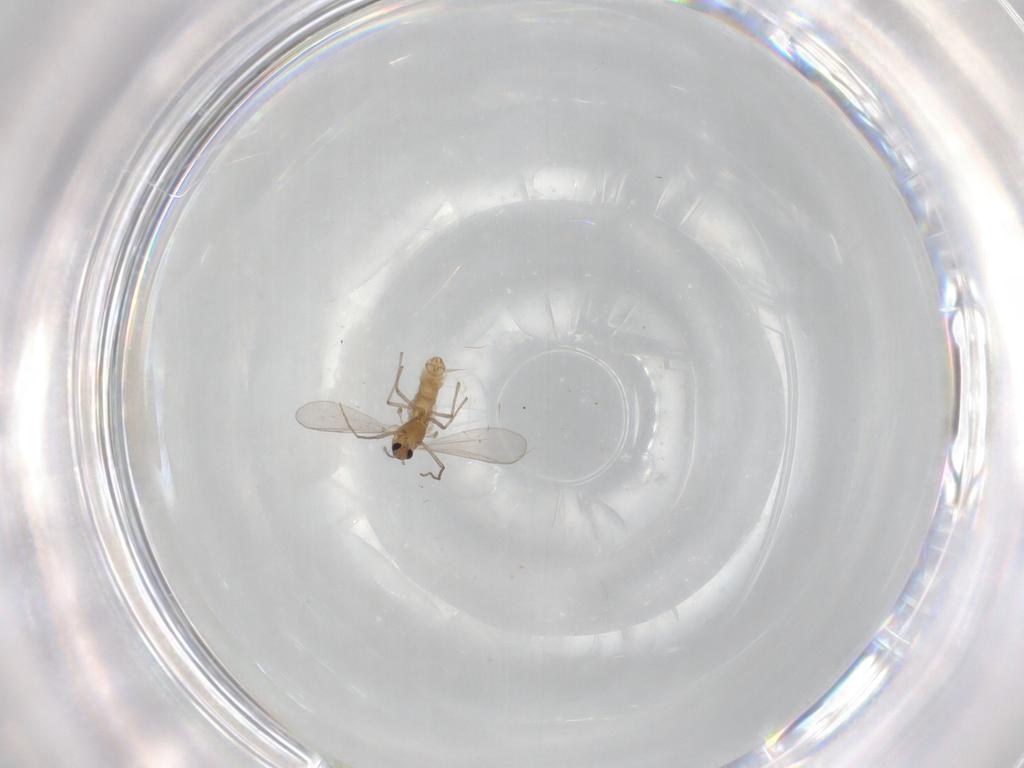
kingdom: Animalia
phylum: Arthropoda
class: Insecta
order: Diptera
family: Chironomidae
